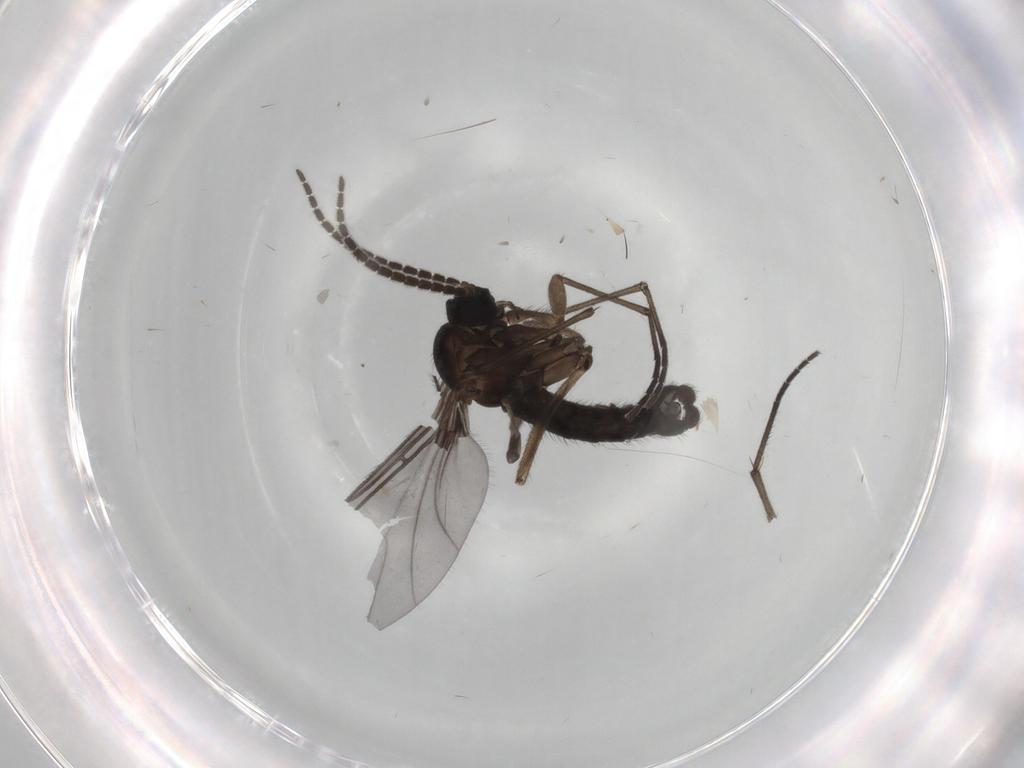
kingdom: Animalia
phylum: Arthropoda
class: Insecta
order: Diptera
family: Sciaridae
